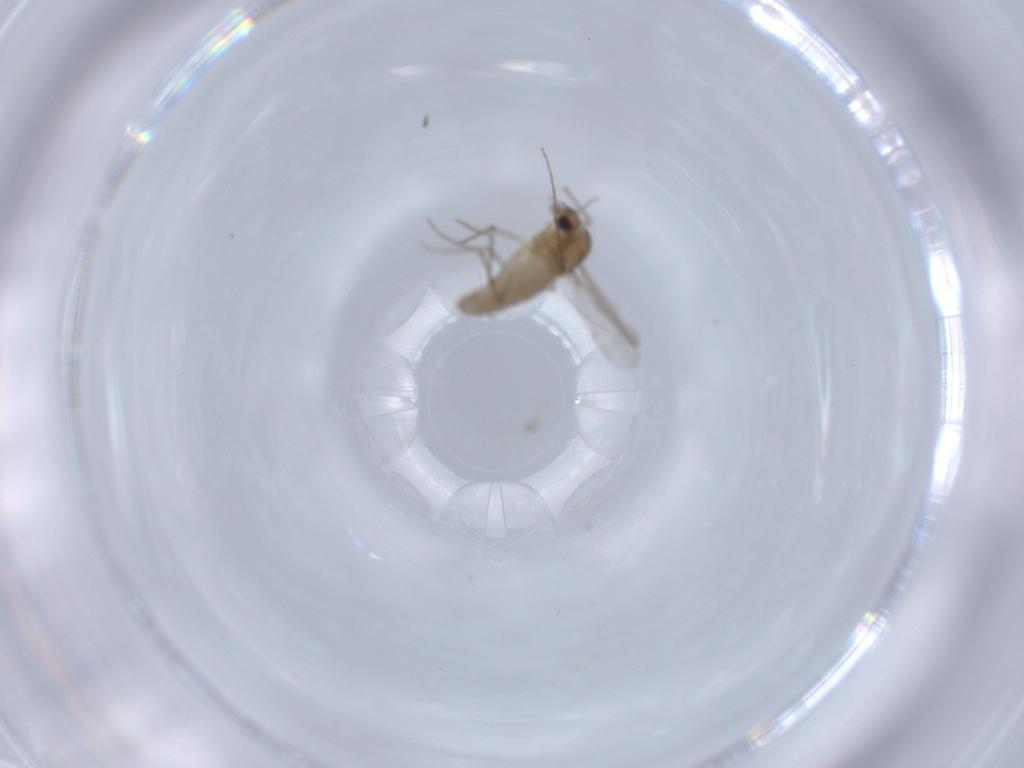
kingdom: Animalia
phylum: Arthropoda
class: Insecta
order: Diptera
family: Chironomidae
